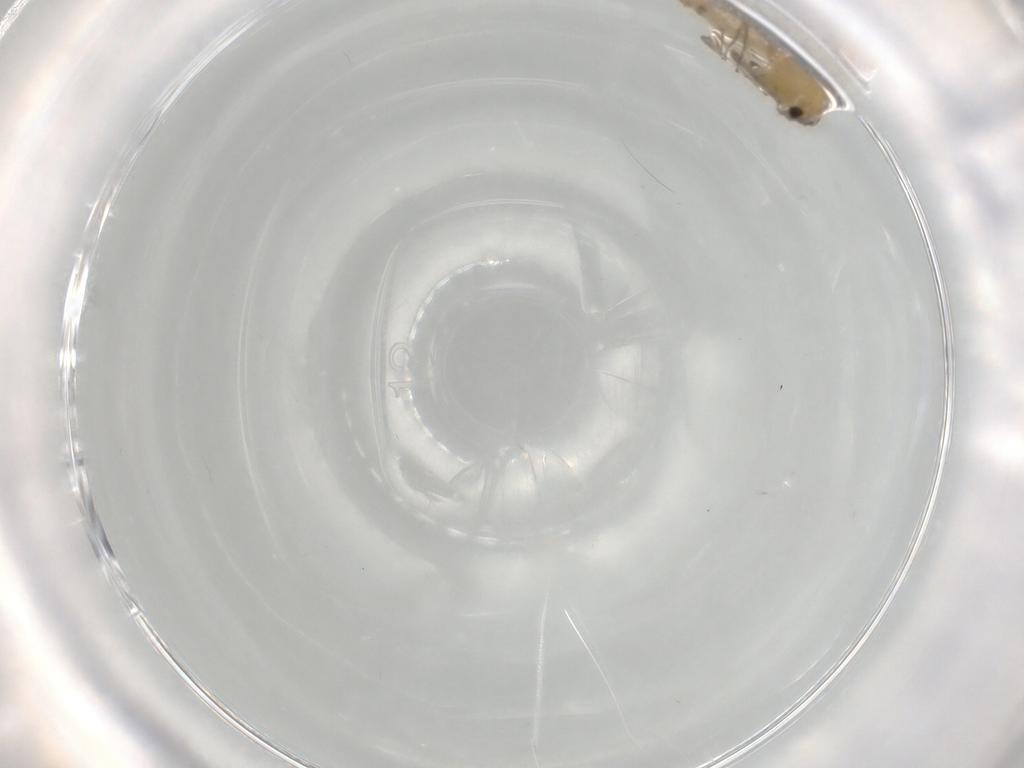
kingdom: Animalia
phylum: Arthropoda
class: Insecta
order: Diptera
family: Chironomidae
